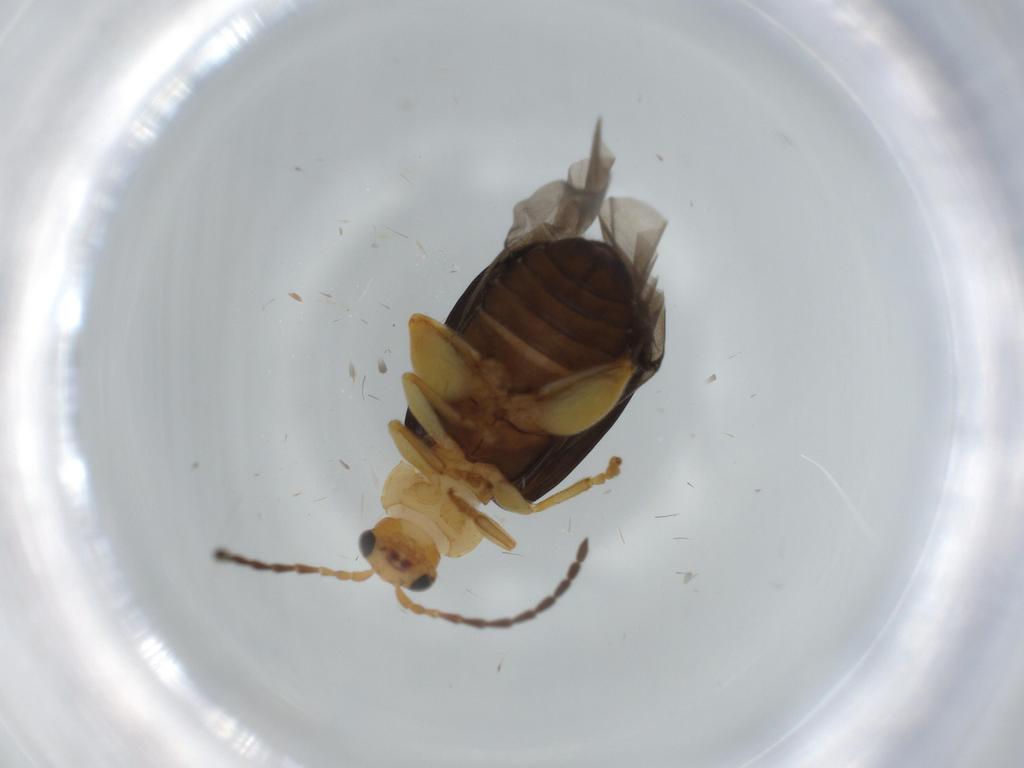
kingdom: Animalia
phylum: Arthropoda
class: Insecta
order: Coleoptera
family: Chrysomelidae
